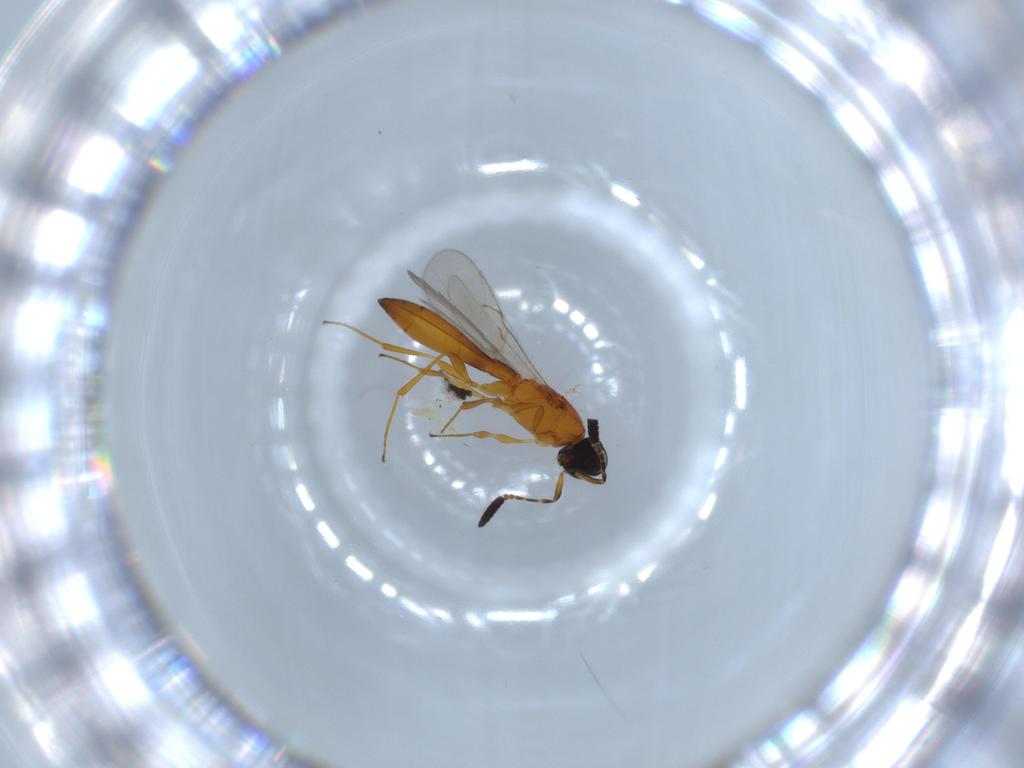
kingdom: Animalia
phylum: Arthropoda
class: Insecta
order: Hymenoptera
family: Scelionidae
